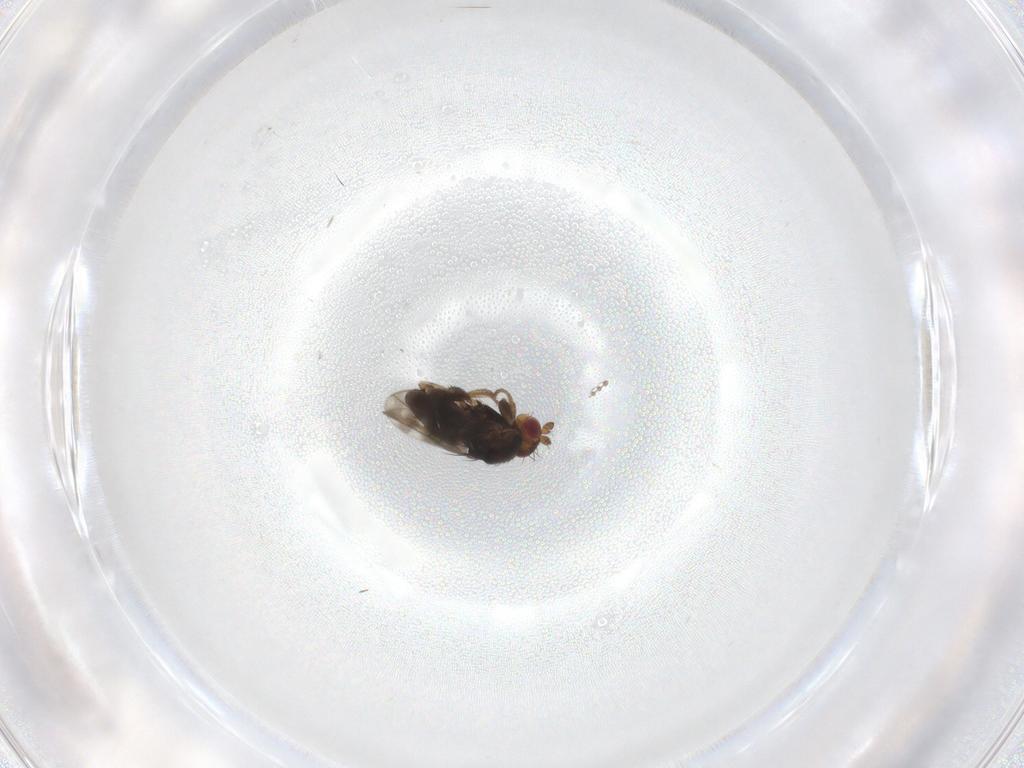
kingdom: Animalia
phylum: Arthropoda
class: Insecta
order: Diptera
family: Sphaeroceridae
